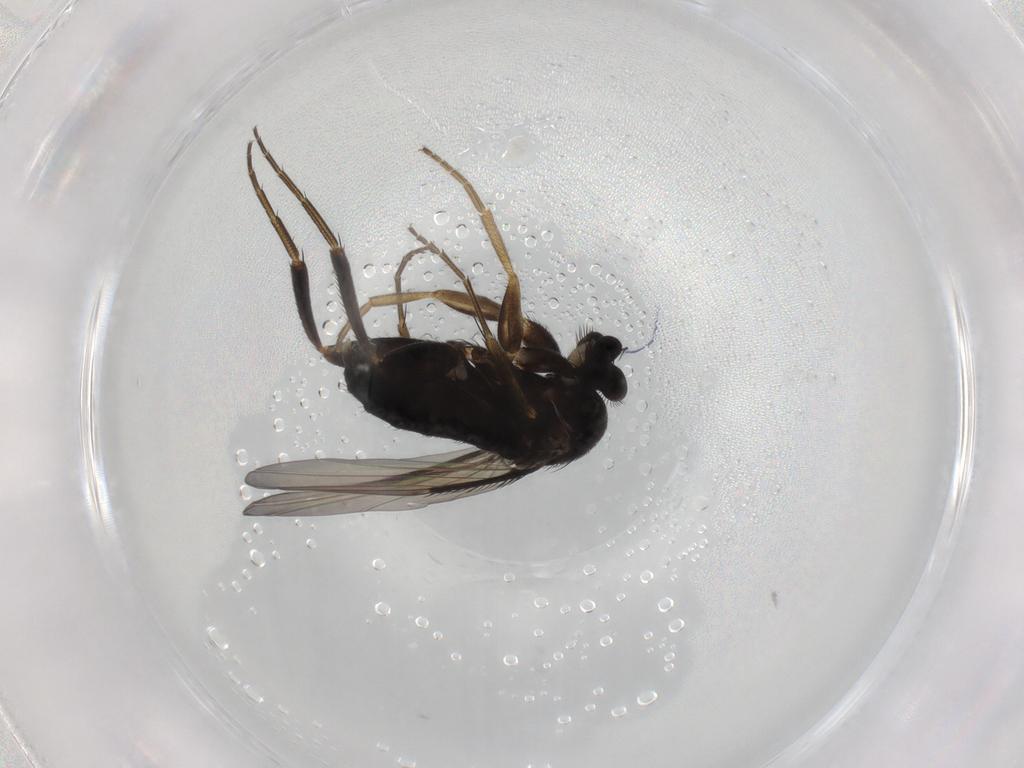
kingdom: Animalia
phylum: Arthropoda
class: Insecta
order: Diptera
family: Phoridae
